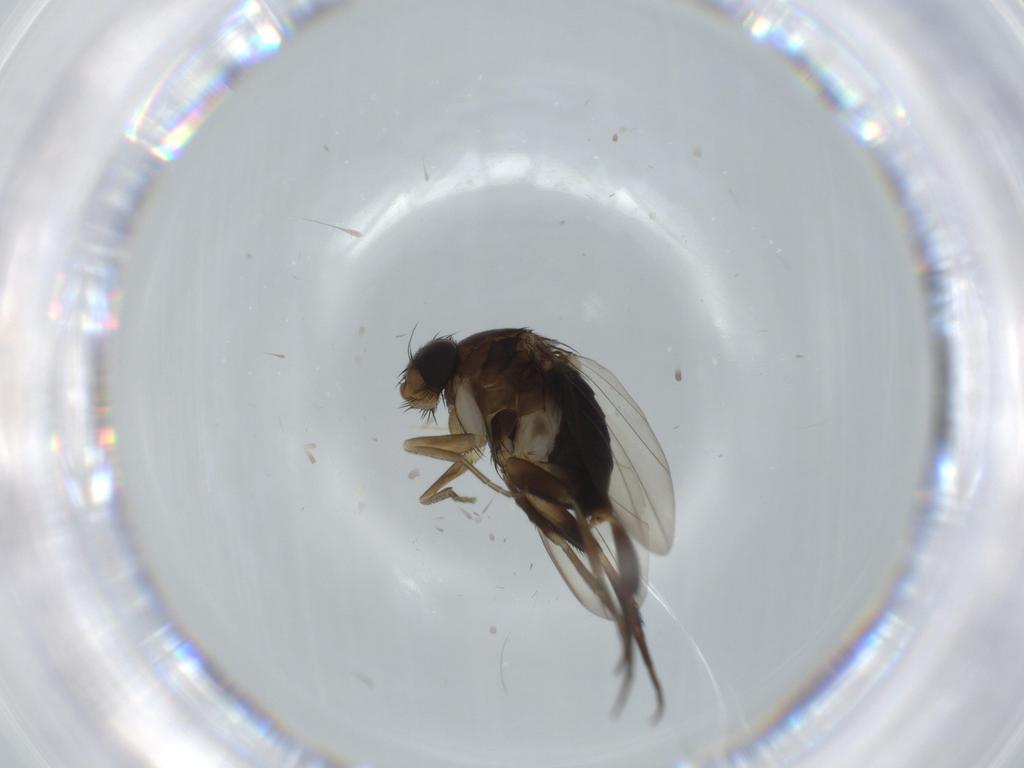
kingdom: Animalia
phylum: Arthropoda
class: Insecta
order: Diptera
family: Phoridae
